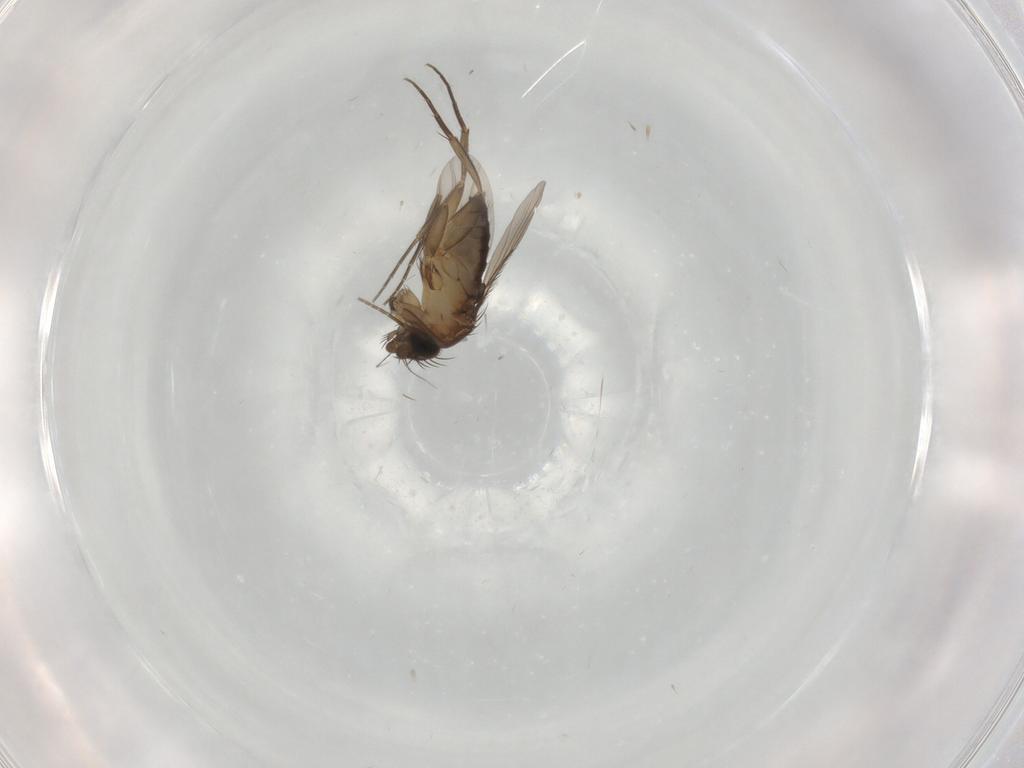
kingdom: Animalia
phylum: Arthropoda
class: Insecta
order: Diptera
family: Phoridae
